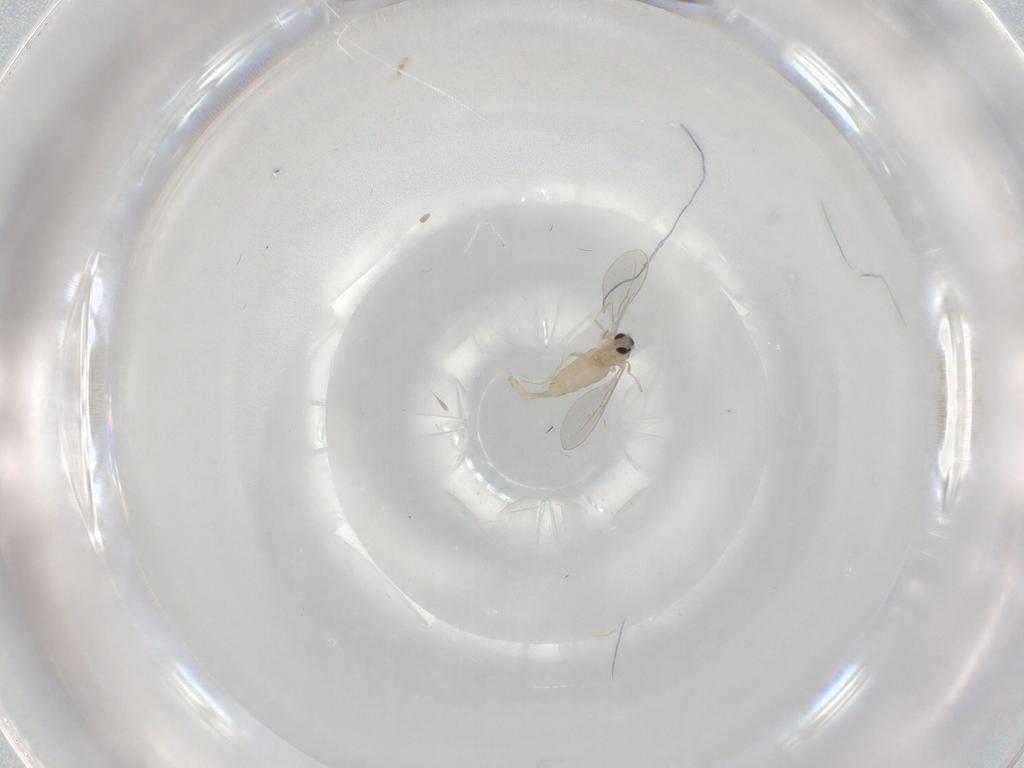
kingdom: Animalia
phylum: Arthropoda
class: Insecta
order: Diptera
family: Cecidomyiidae
